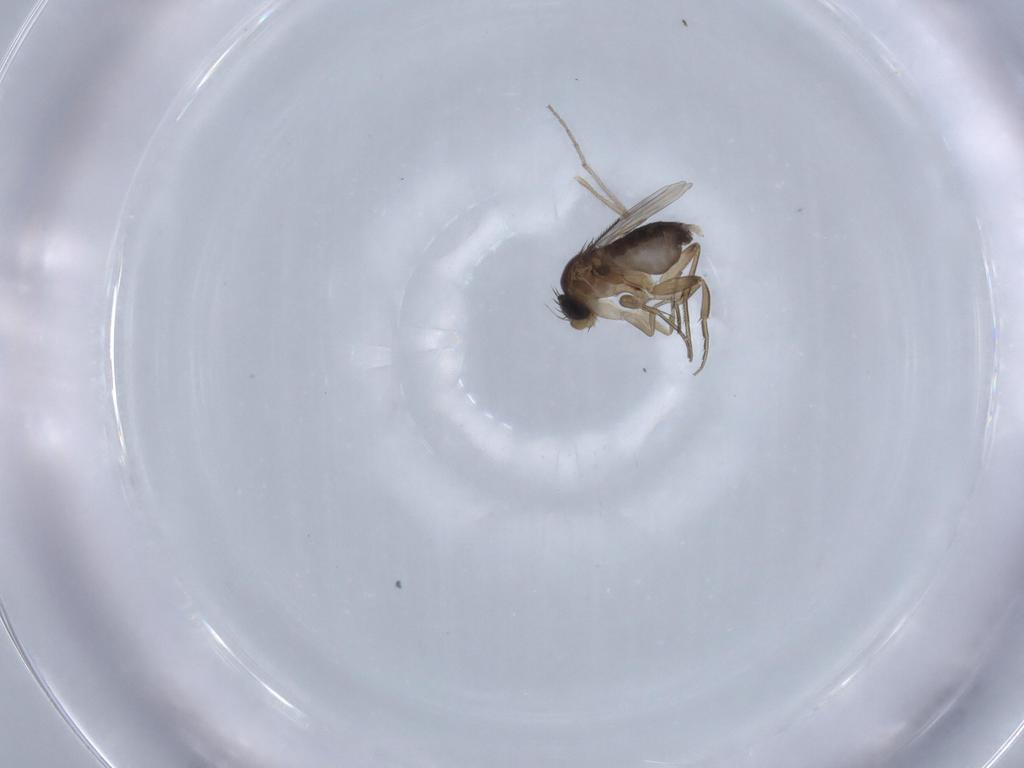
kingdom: Animalia
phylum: Arthropoda
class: Insecta
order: Diptera
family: Phoridae
